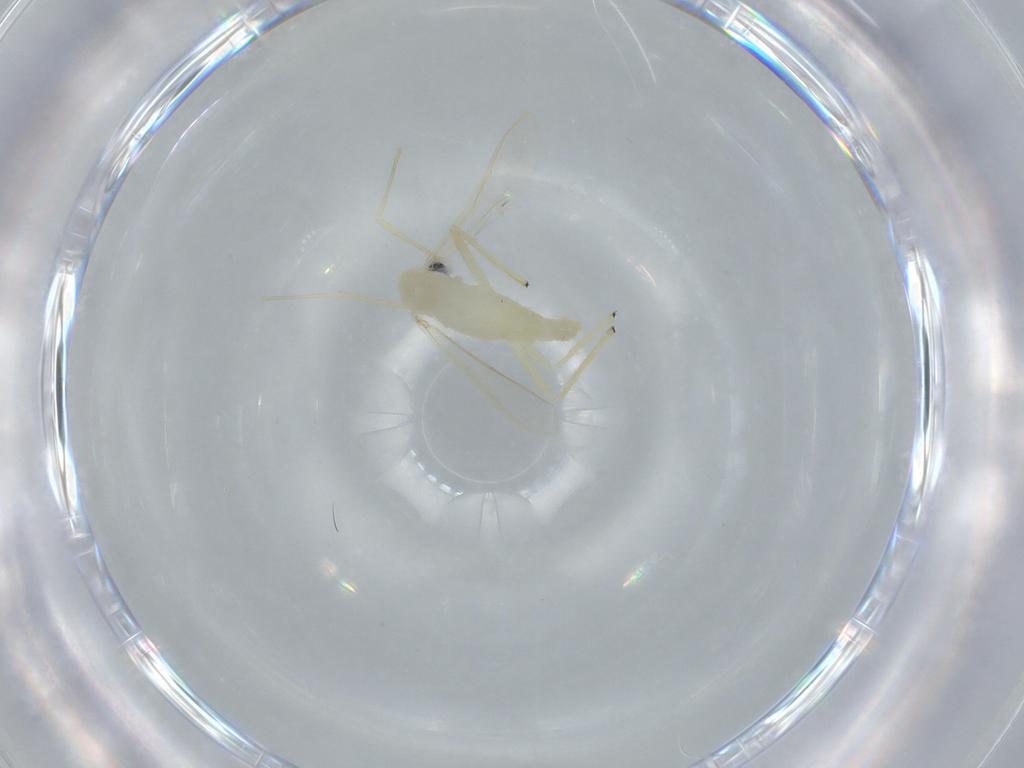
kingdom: Animalia
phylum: Arthropoda
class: Insecta
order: Diptera
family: Chironomidae
